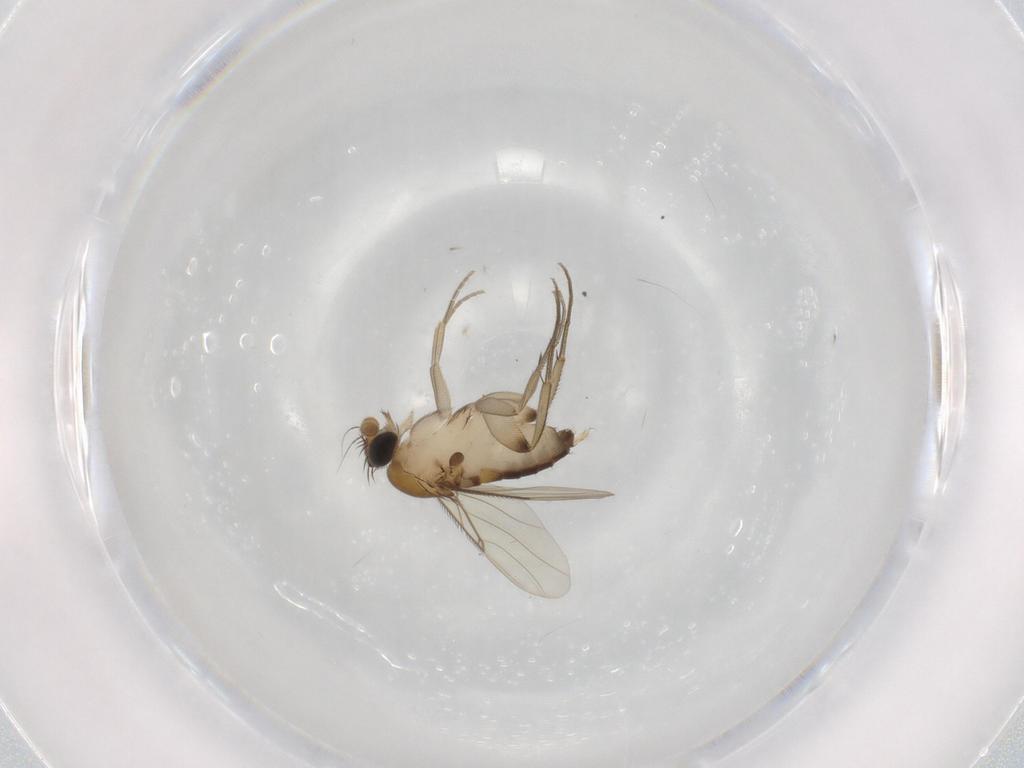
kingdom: Animalia
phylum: Arthropoda
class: Insecta
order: Diptera
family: Phoridae
